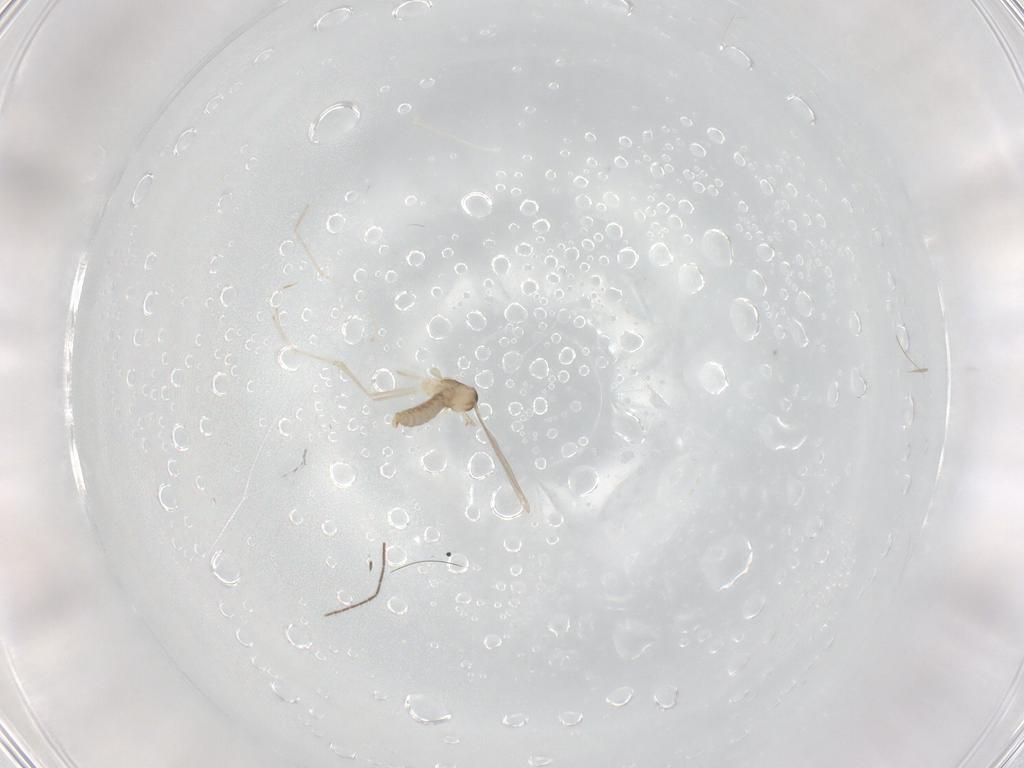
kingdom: Animalia
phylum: Arthropoda
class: Insecta
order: Diptera
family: Cecidomyiidae
